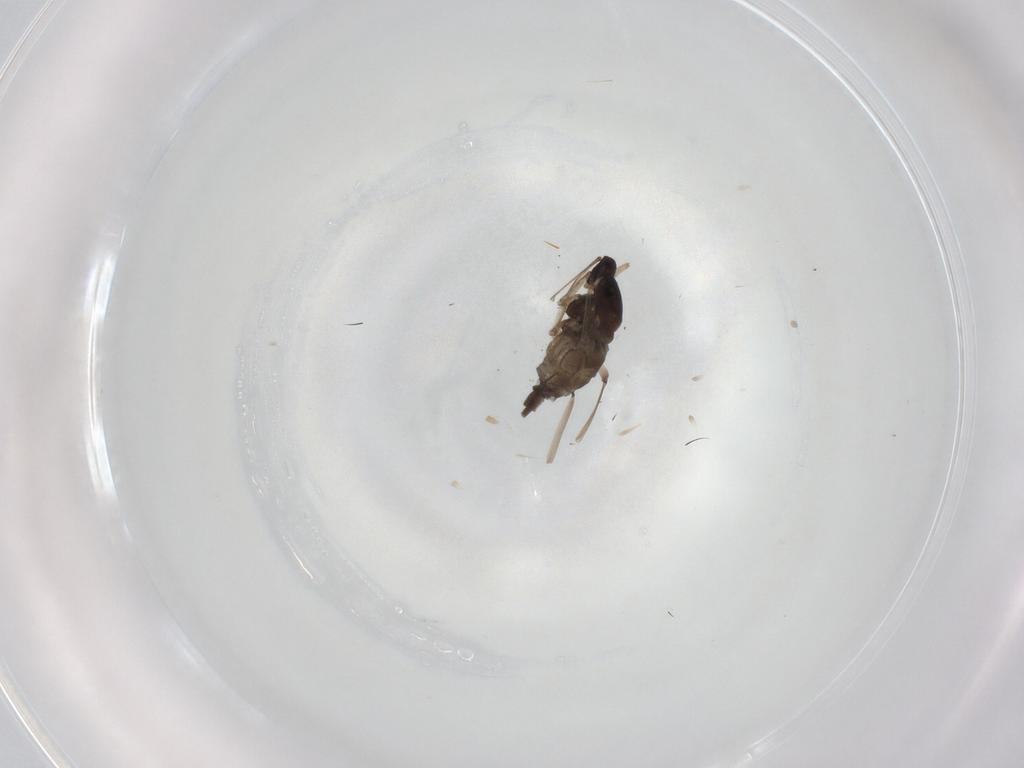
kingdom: Animalia
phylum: Arthropoda
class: Insecta
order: Diptera
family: Cecidomyiidae
